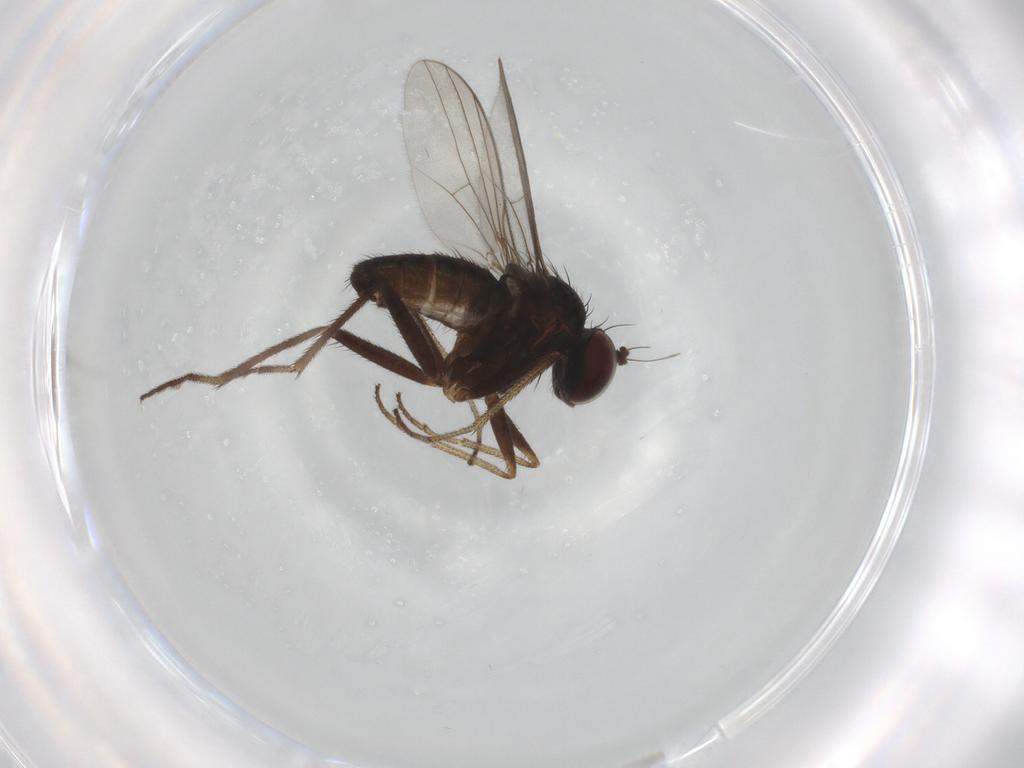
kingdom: Animalia
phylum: Arthropoda
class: Insecta
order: Diptera
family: Dolichopodidae
